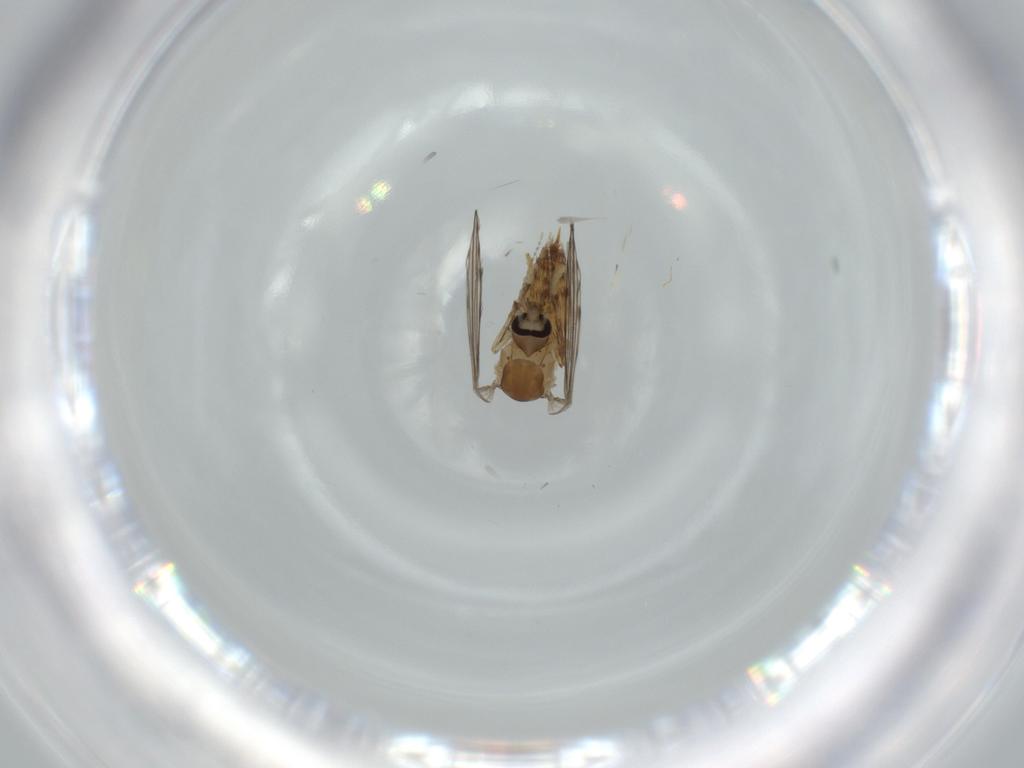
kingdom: Animalia
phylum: Arthropoda
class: Insecta
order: Diptera
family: Psychodidae
